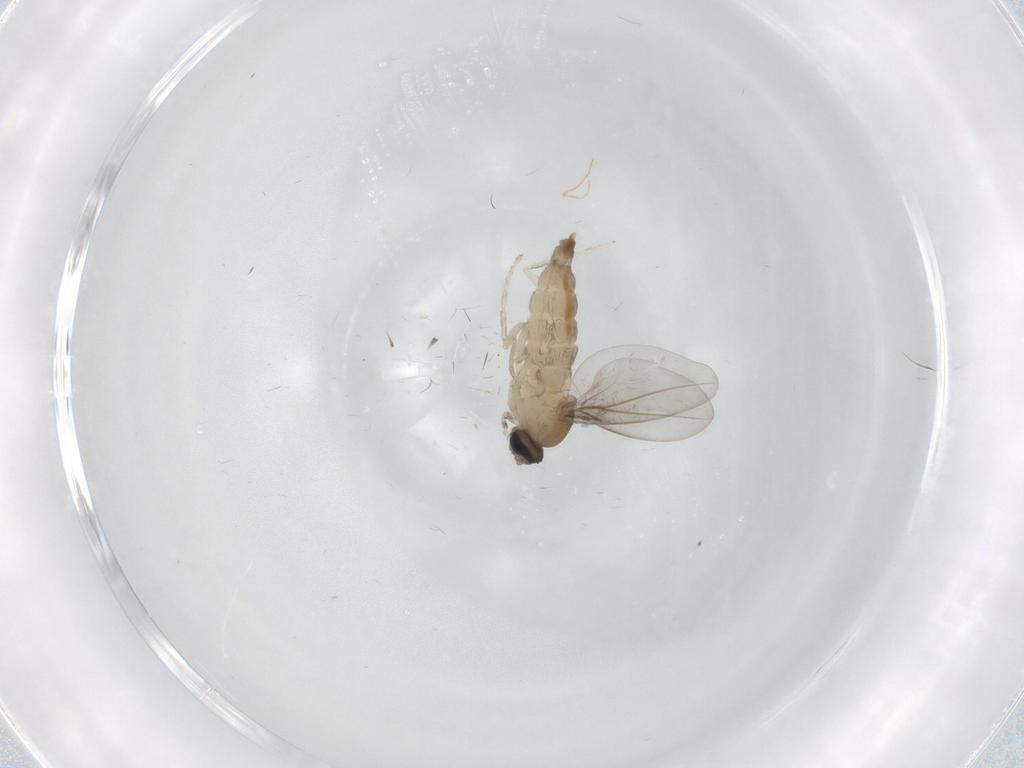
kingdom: Animalia
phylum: Arthropoda
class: Insecta
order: Diptera
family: Cecidomyiidae
